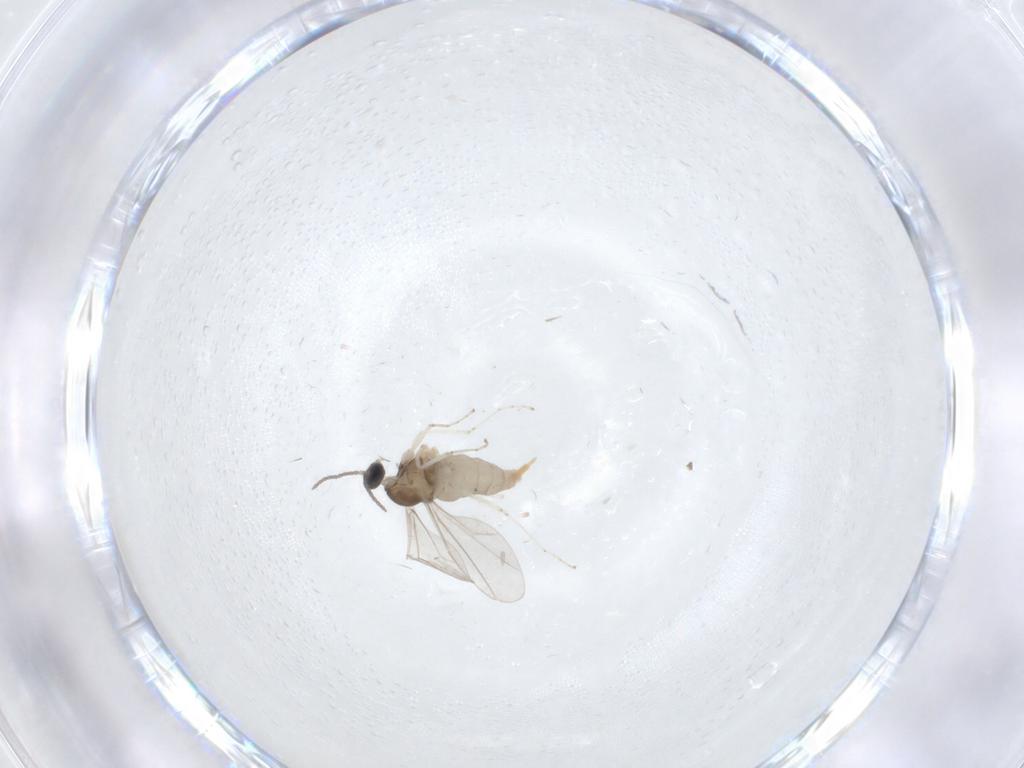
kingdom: Animalia
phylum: Arthropoda
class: Insecta
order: Diptera
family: Cecidomyiidae
